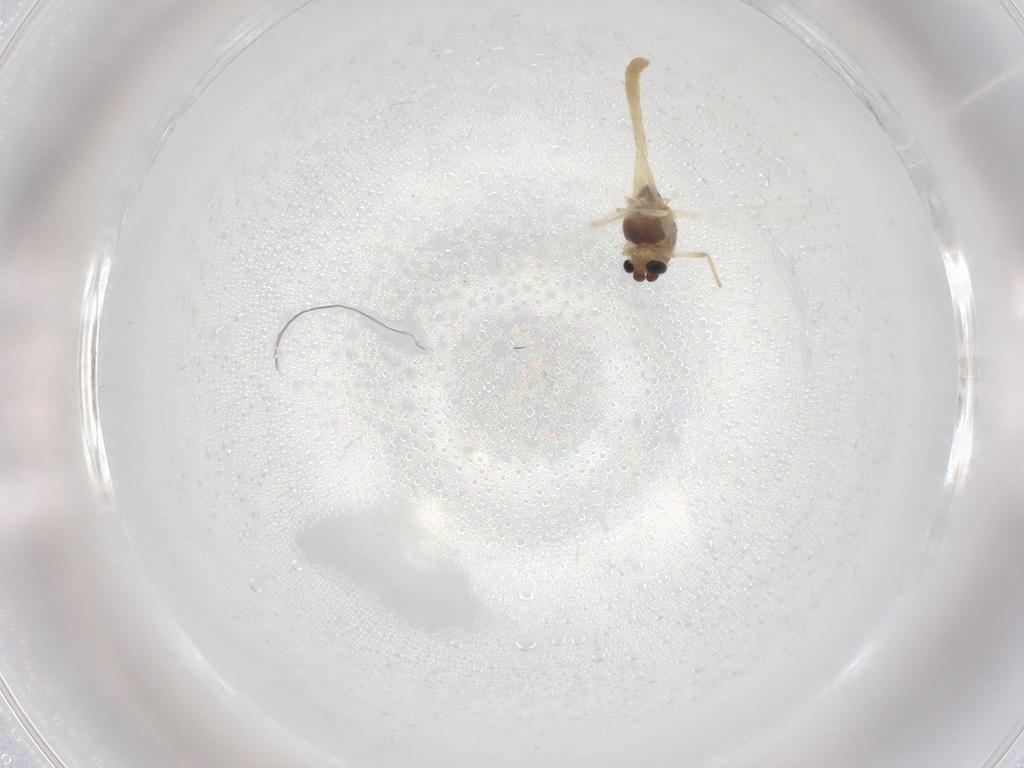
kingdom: Animalia
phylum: Arthropoda
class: Insecta
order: Diptera
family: Chironomidae
